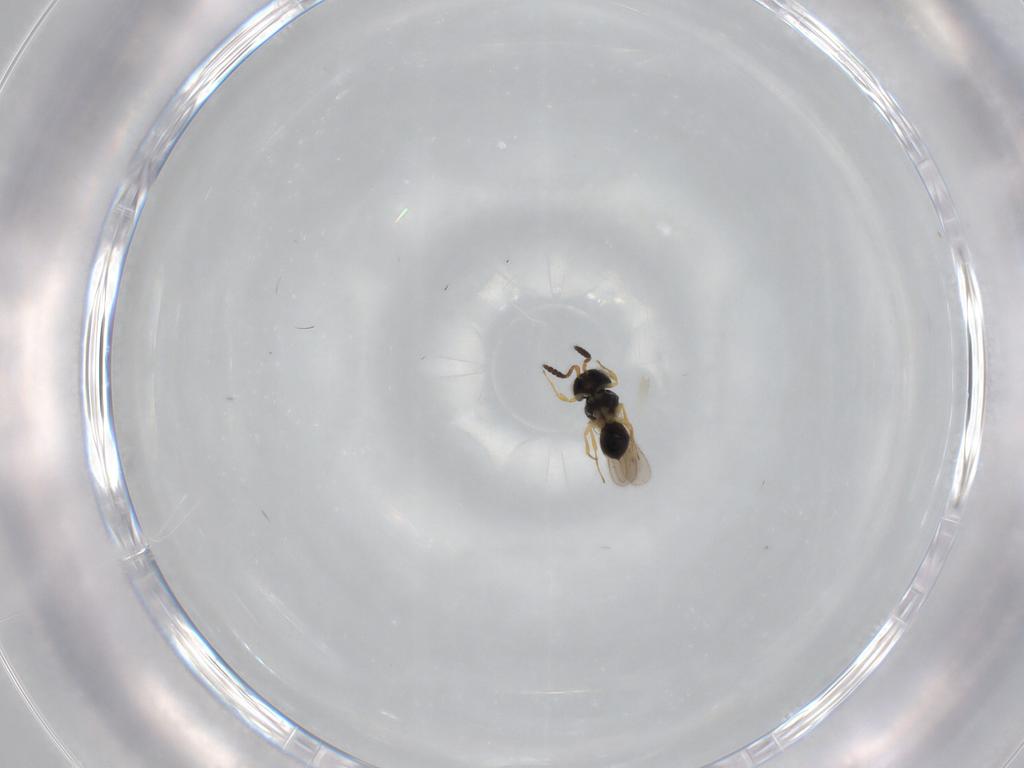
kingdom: Animalia
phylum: Arthropoda
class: Insecta
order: Hymenoptera
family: Scelionidae
